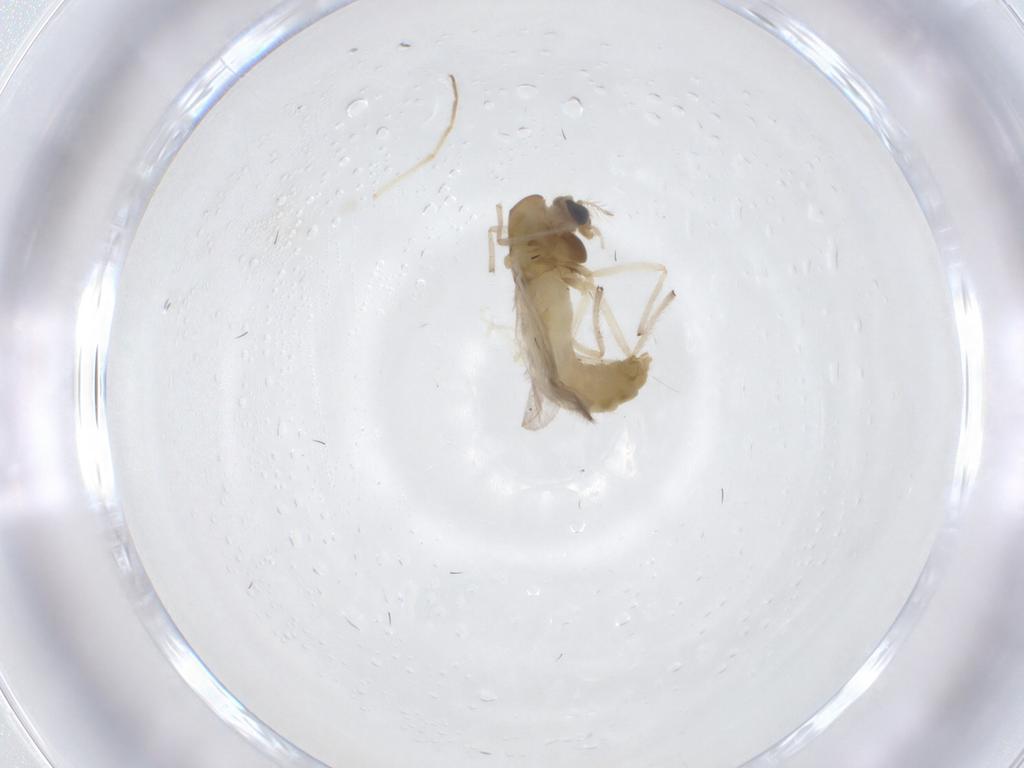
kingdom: Animalia
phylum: Arthropoda
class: Insecta
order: Diptera
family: Chironomidae
